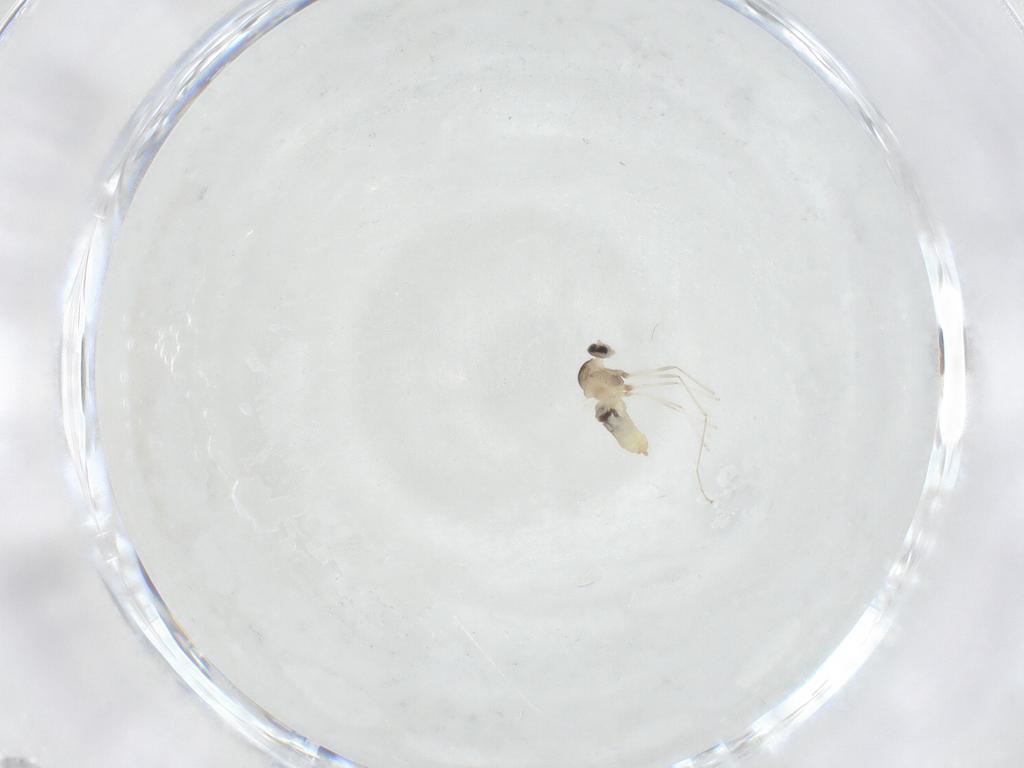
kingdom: Animalia
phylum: Arthropoda
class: Insecta
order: Diptera
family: Cecidomyiidae
